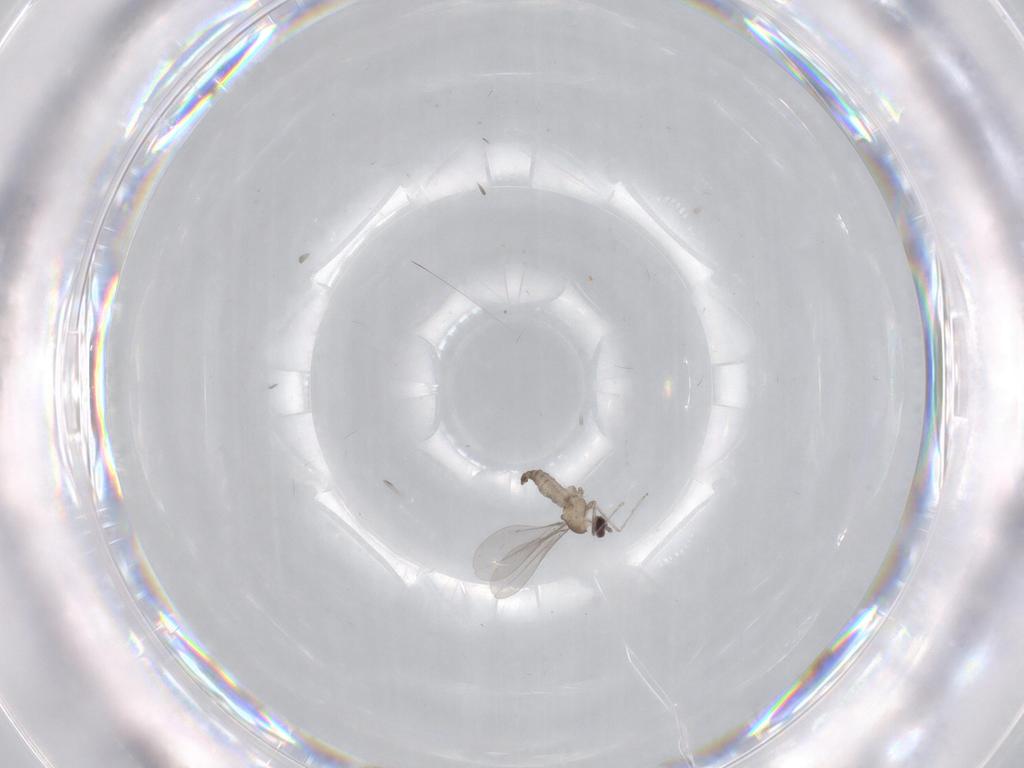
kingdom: Animalia
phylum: Arthropoda
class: Insecta
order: Diptera
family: Cecidomyiidae
